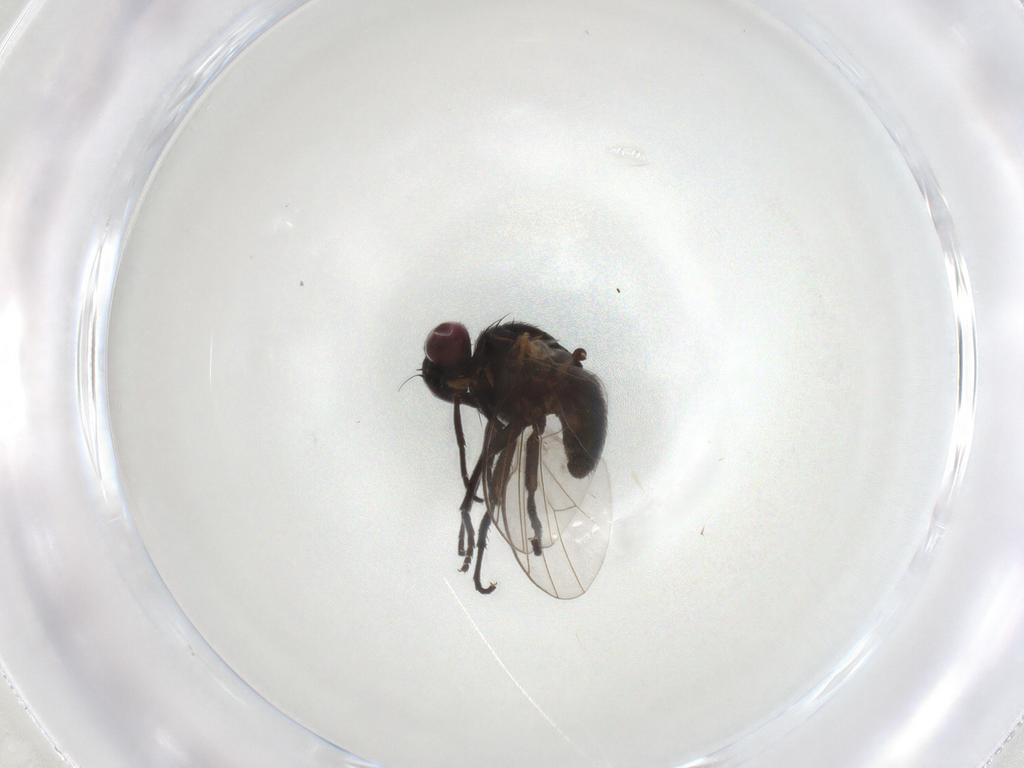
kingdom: Animalia
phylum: Arthropoda
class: Insecta
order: Diptera
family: Agromyzidae
